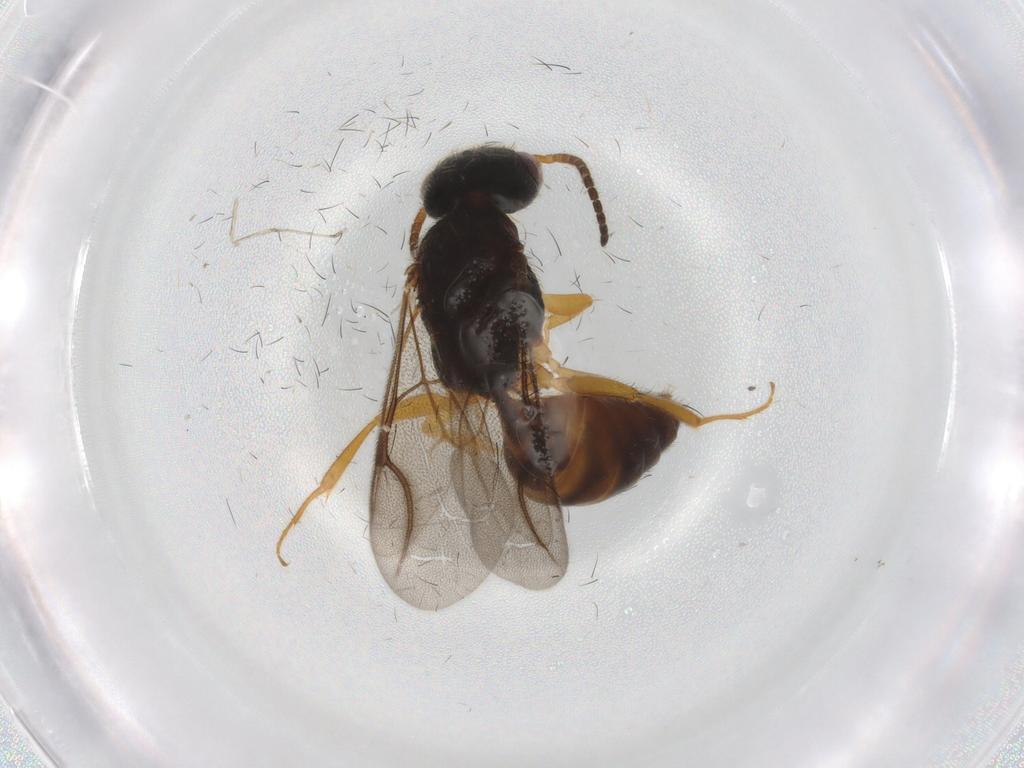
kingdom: Animalia
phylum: Arthropoda
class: Insecta
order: Hymenoptera
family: Bethylidae
